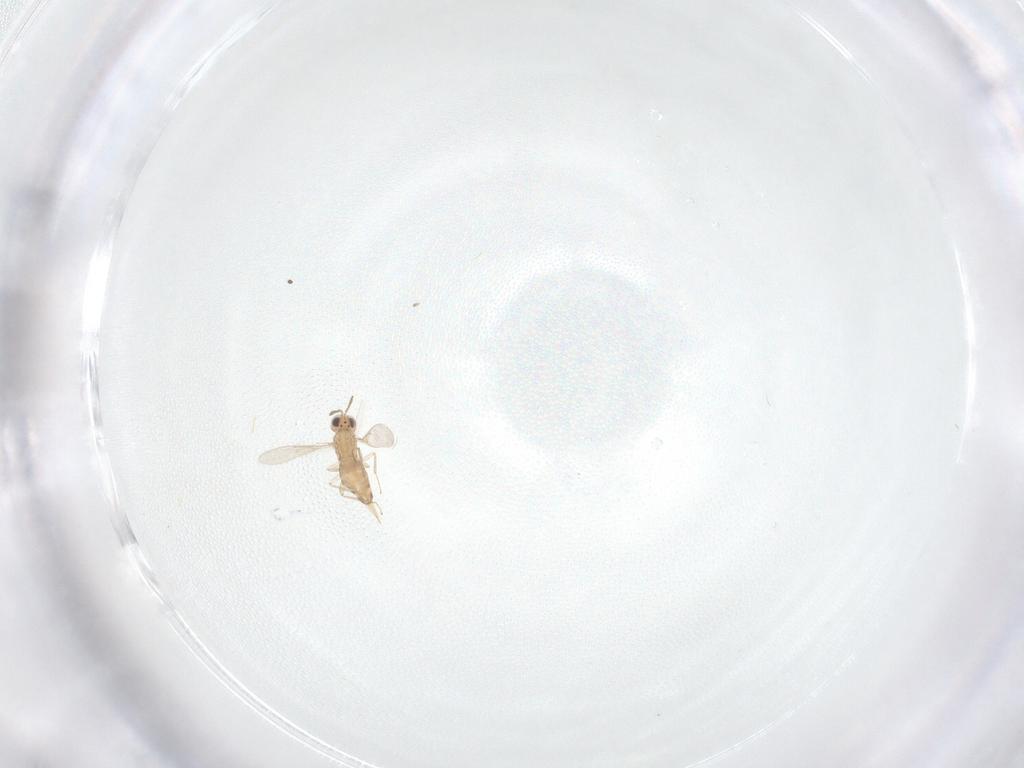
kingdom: Animalia
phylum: Arthropoda
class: Insecta
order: Hymenoptera
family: Aphelinidae
